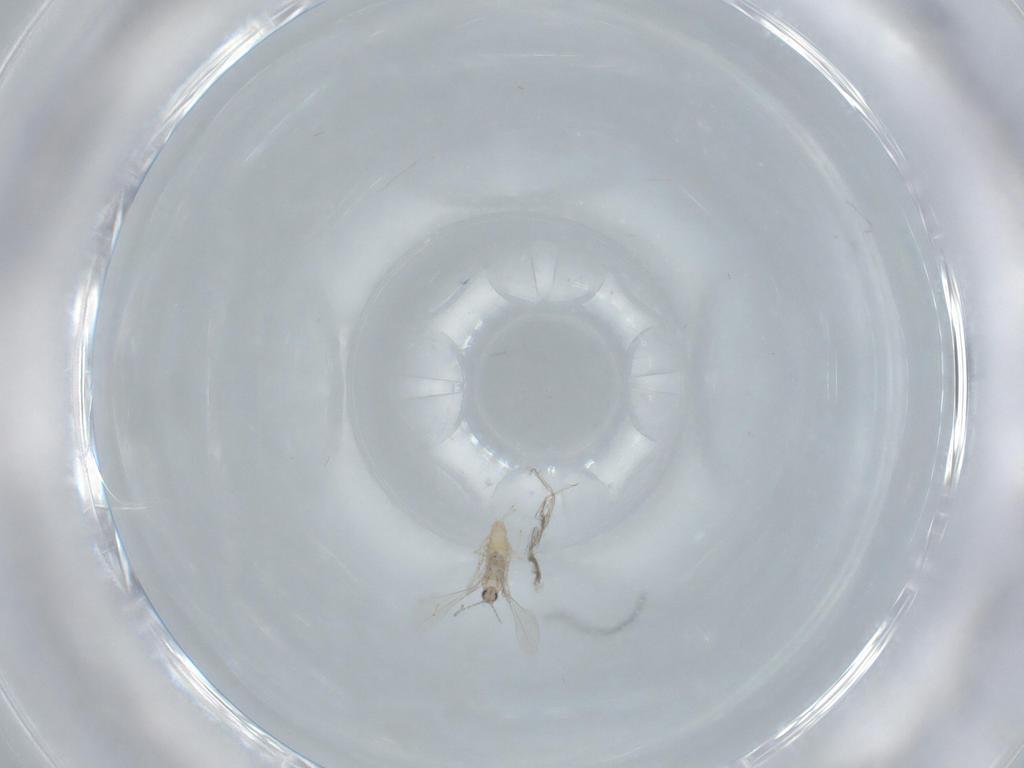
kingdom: Animalia
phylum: Arthropoda
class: Insecta
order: Diptera
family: Cecidomyiidae
